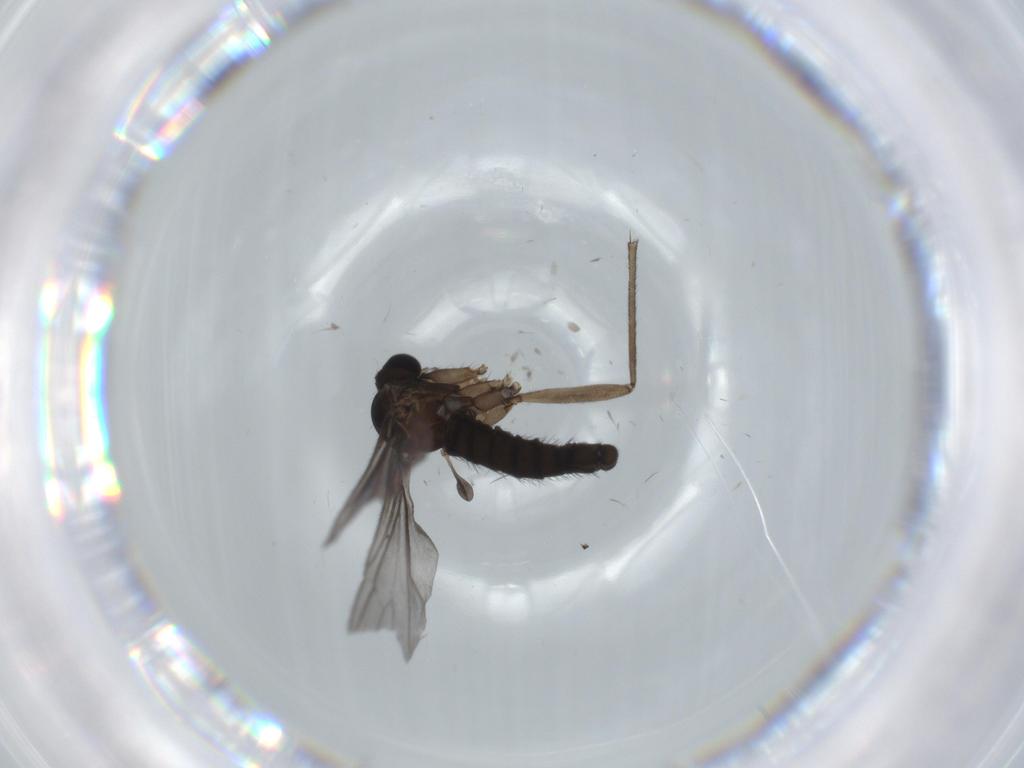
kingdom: Animalia
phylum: Arthropoda
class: Insecta
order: Diptera
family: Sciaridae
